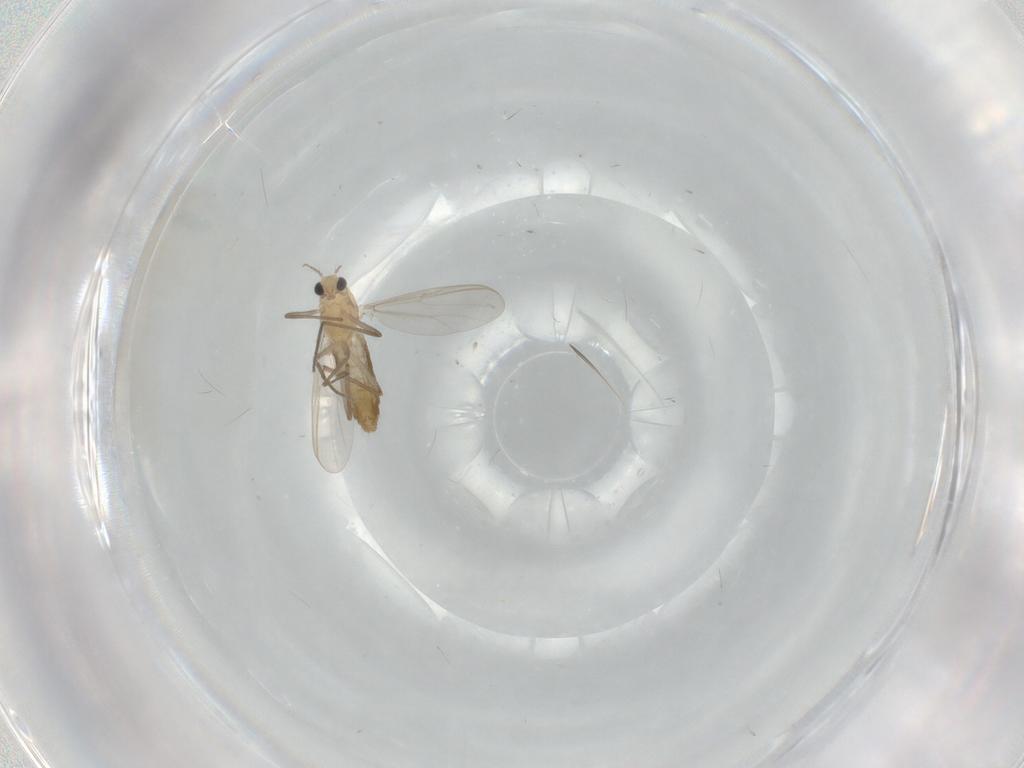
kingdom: Animalia
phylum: Arthropoda
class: Insecta
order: Diptera
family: Chironomidae
